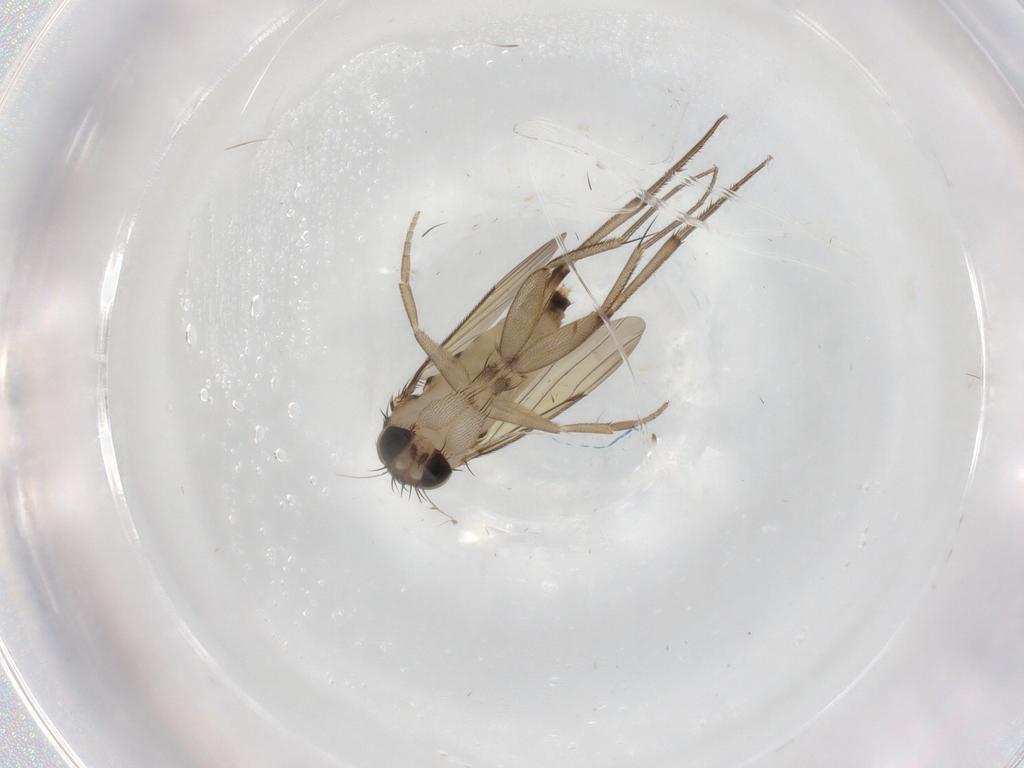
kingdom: Animalia
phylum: Arthropoda
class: Insecta
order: Diptera
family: Phoridae
